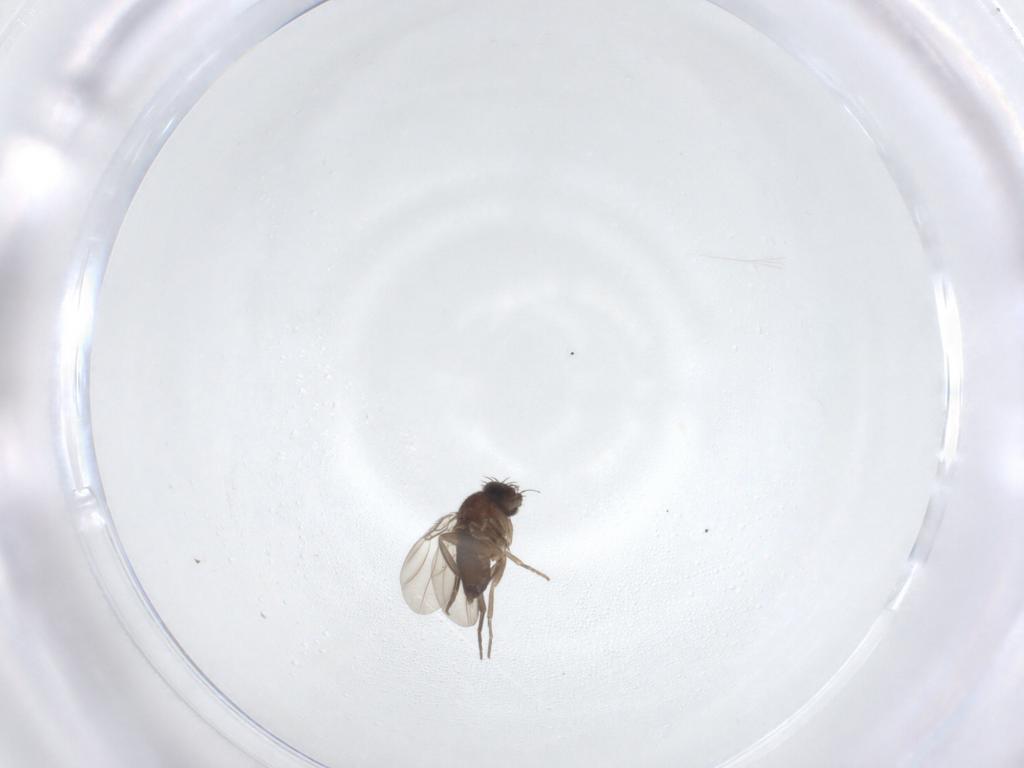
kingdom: Animalia
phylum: Arthropoda
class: Insecta
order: Diptera
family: Phoridae
